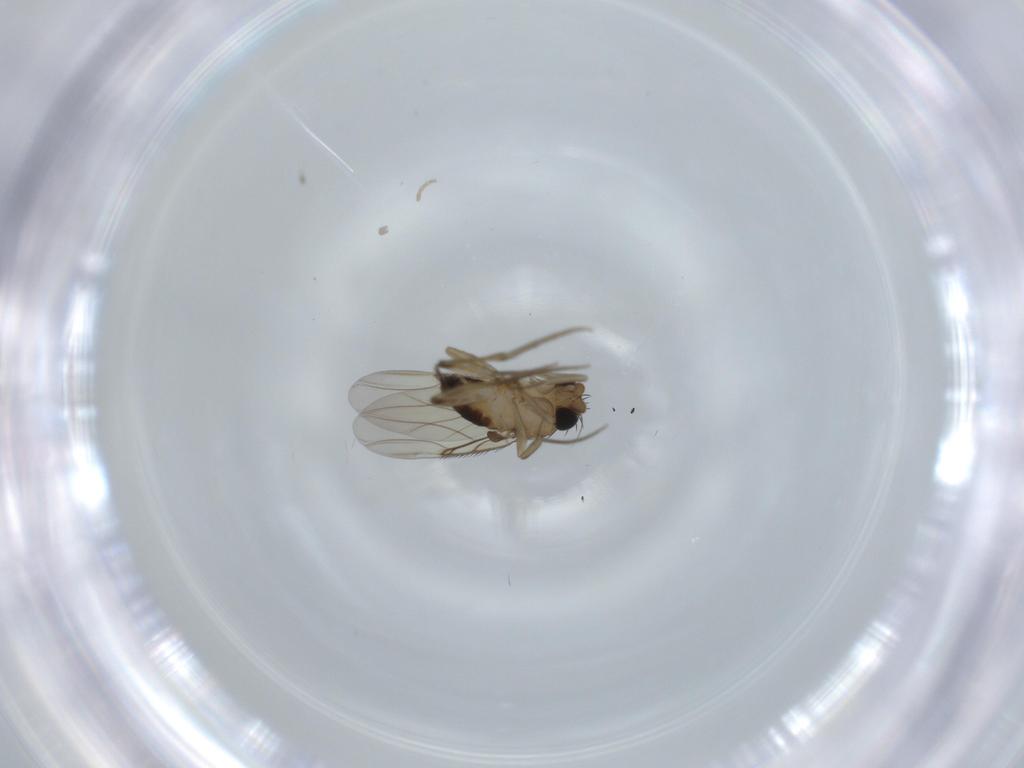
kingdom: Animalia
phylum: Arthropoda
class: Insecta
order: Diptera
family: Phoridae
